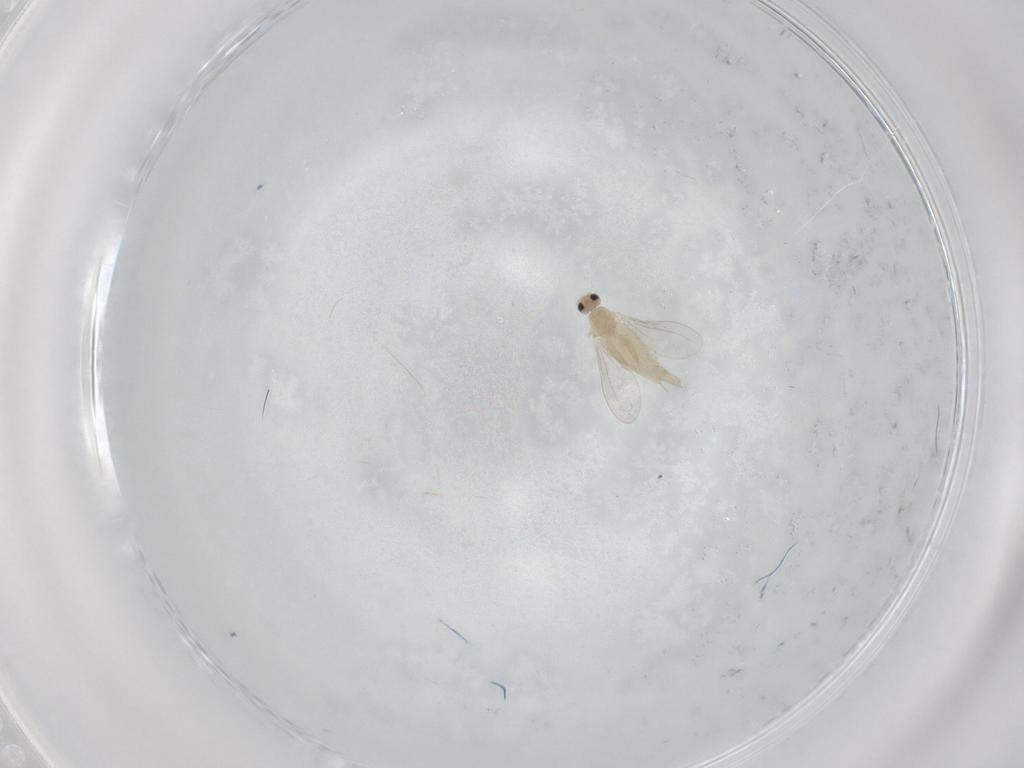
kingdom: Animalia
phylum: Arthropoda
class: Insecta
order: Diptera
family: Cecidomyiidae
